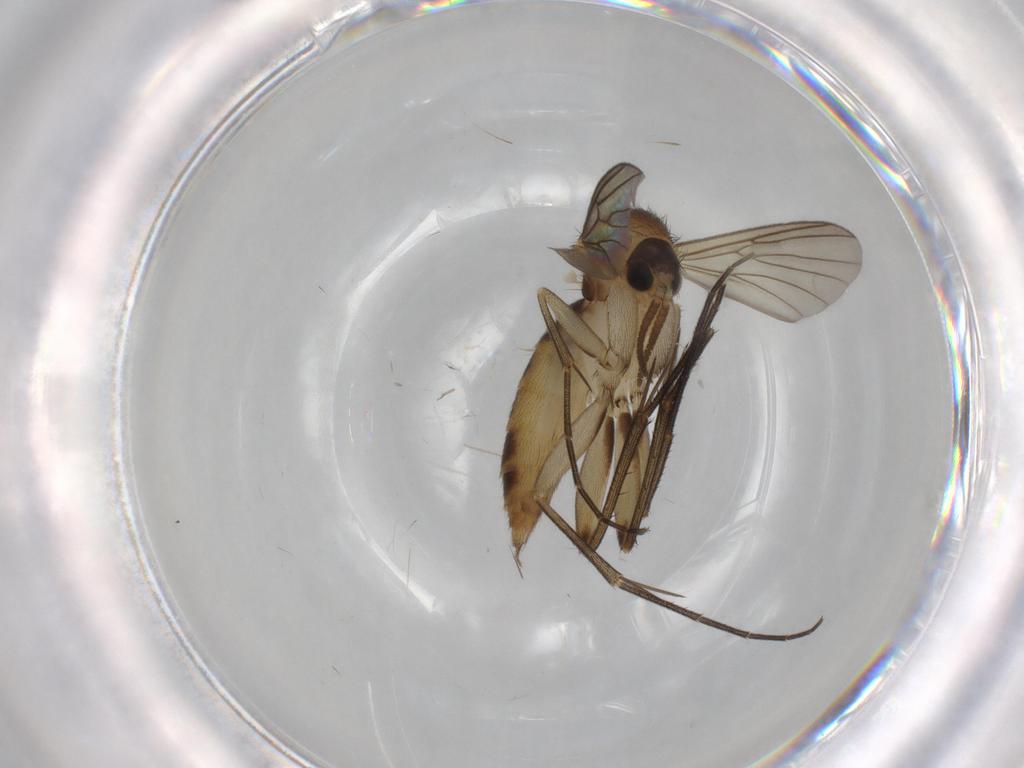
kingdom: Animalia
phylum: Arthropoda
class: Insecta
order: Diptera
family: Mycetophilidae
